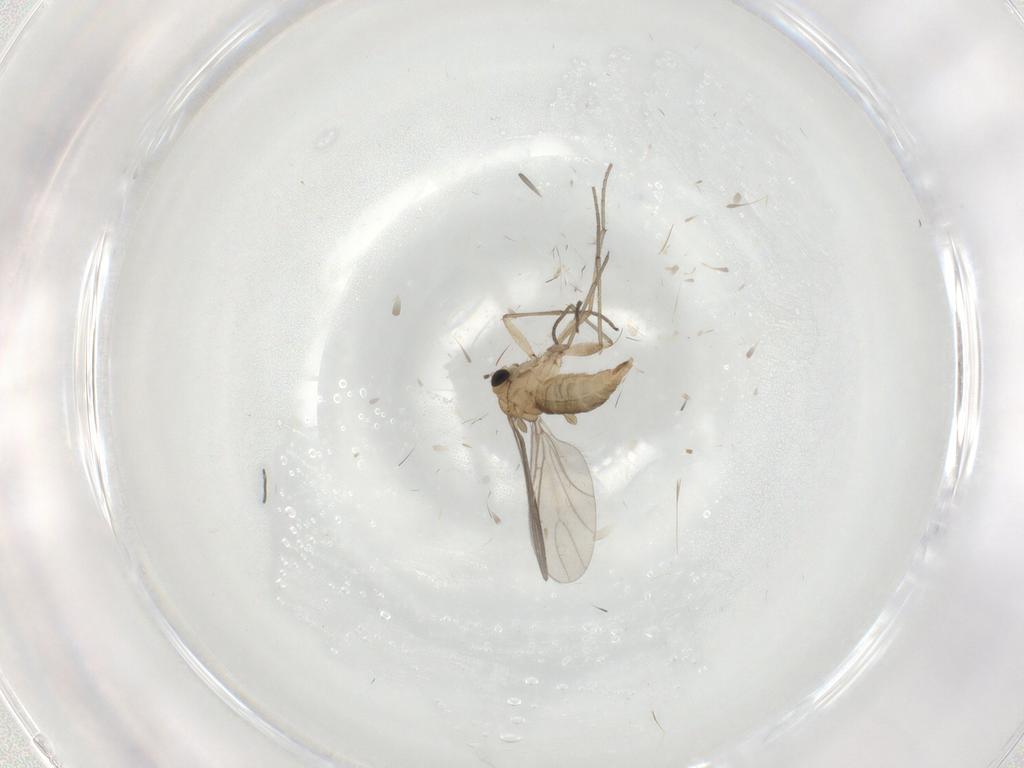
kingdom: Animalia
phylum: Arthropoda
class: Insecta
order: Diptera
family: Sciaridae
